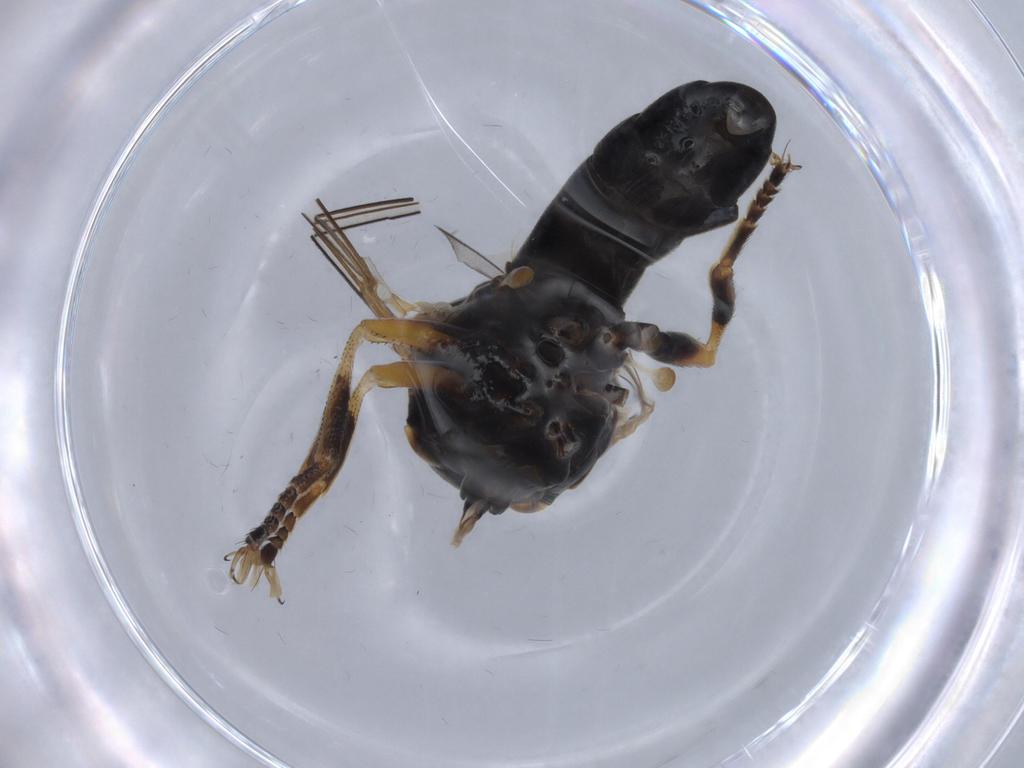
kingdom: Animalia
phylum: Arthropoda
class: Insecta
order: Diptera
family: Pipunculidae
